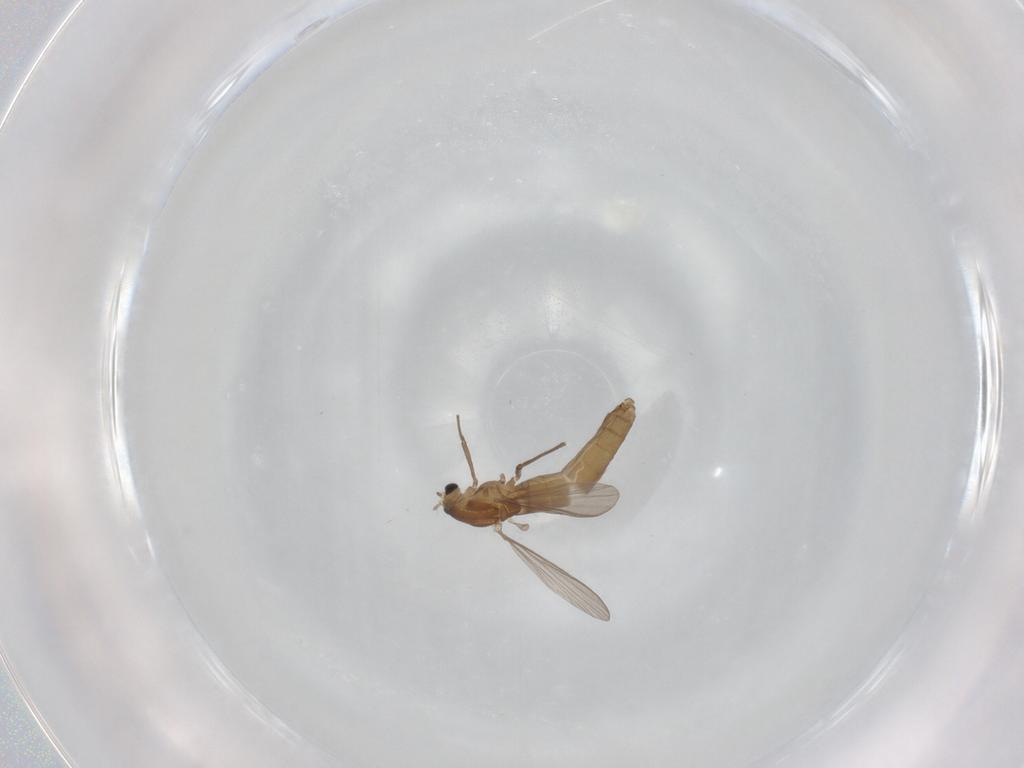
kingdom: Animalia
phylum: Arthropoda
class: Insecta
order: Diptera
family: Chironomidae
